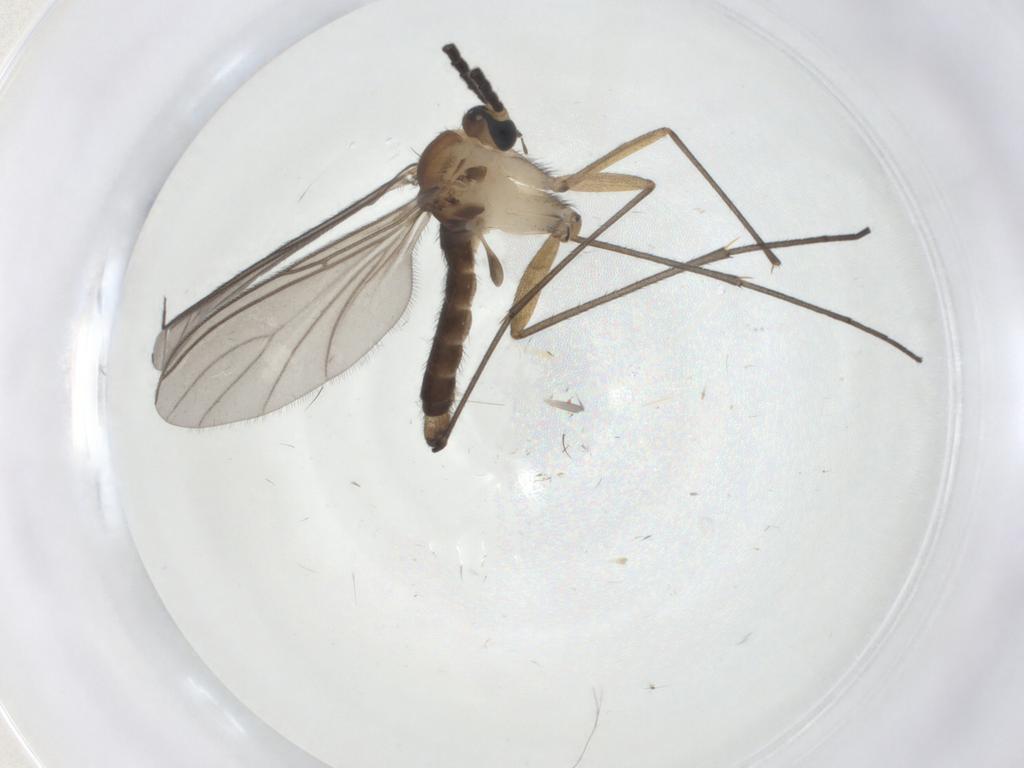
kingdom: Animalia
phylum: Arthropoda
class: Insecta
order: Diptera
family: Sciaridae
